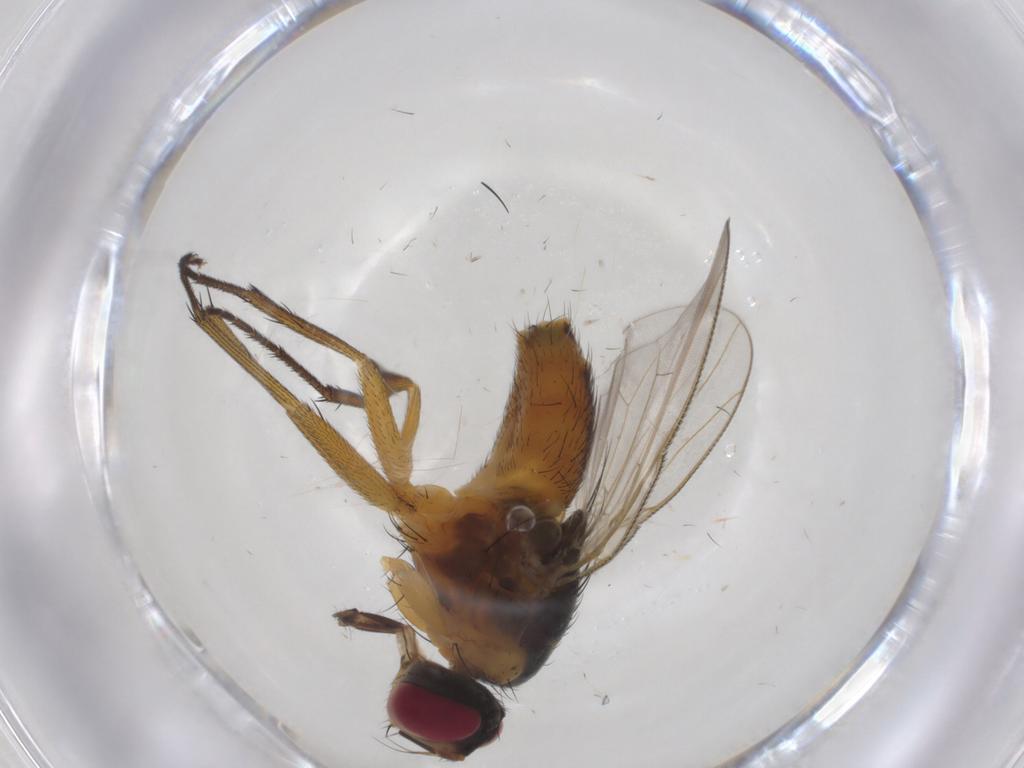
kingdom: Animalia
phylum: Arthropoda
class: Insecta
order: Diptera
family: Muscidae
